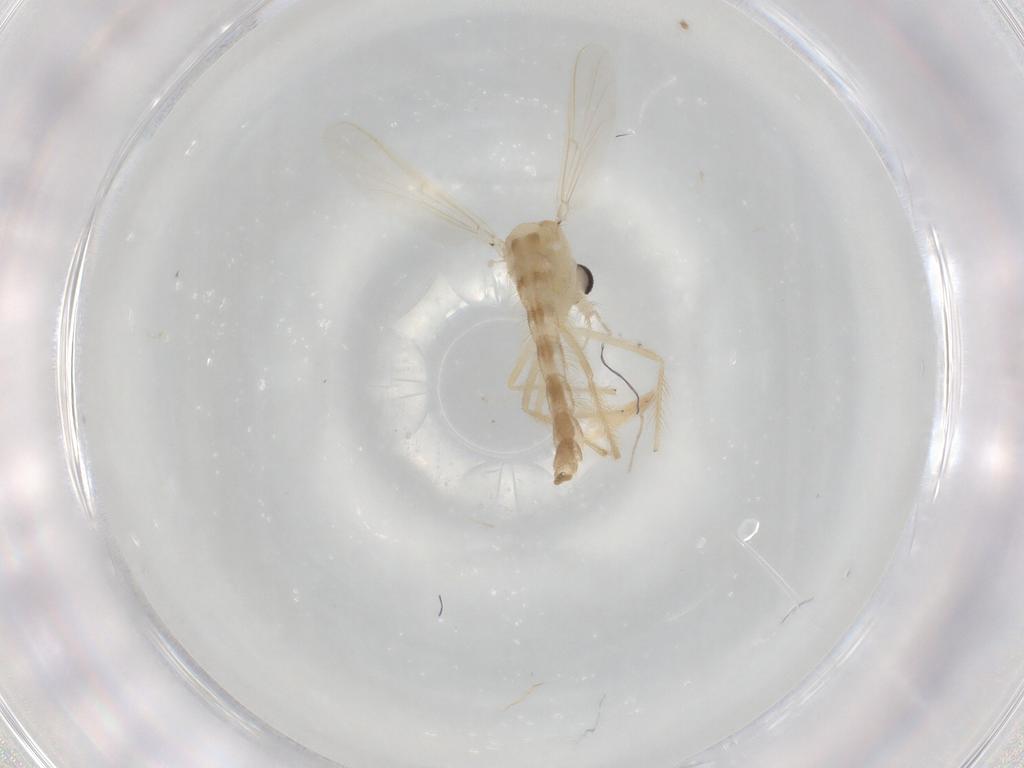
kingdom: Animalia
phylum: Arthropoda
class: Insecta
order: Diptera
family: Chironomidae
